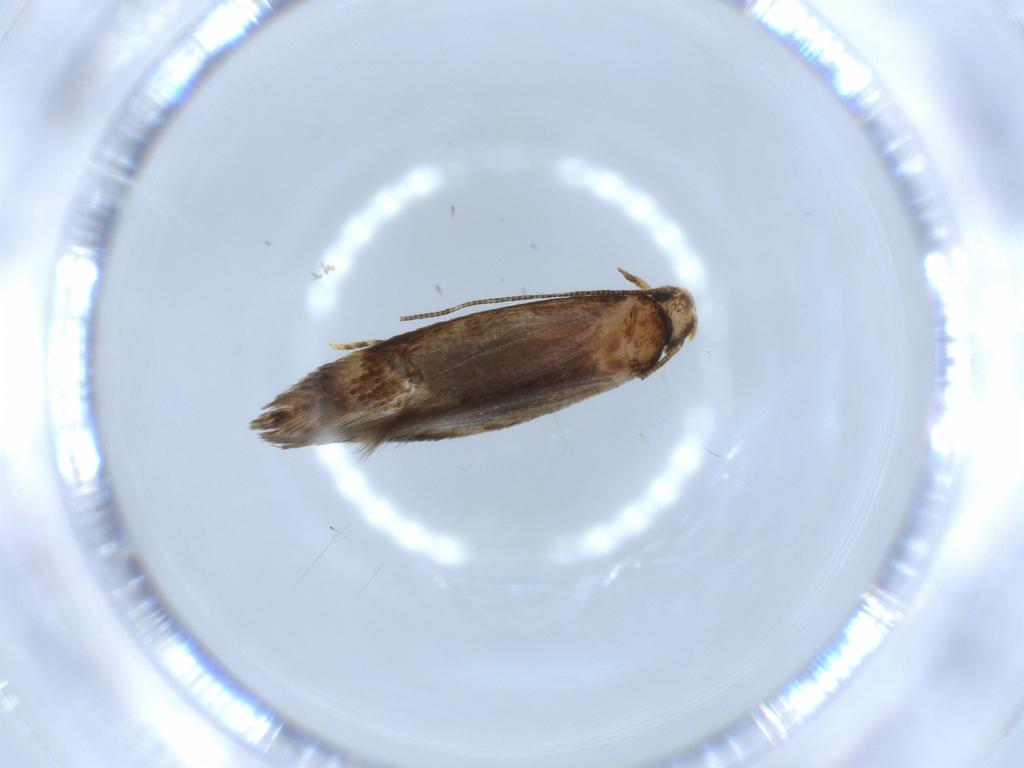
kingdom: Animalia
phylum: Arthropoda
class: Insecta
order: Lepidoptera
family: Tineidae
